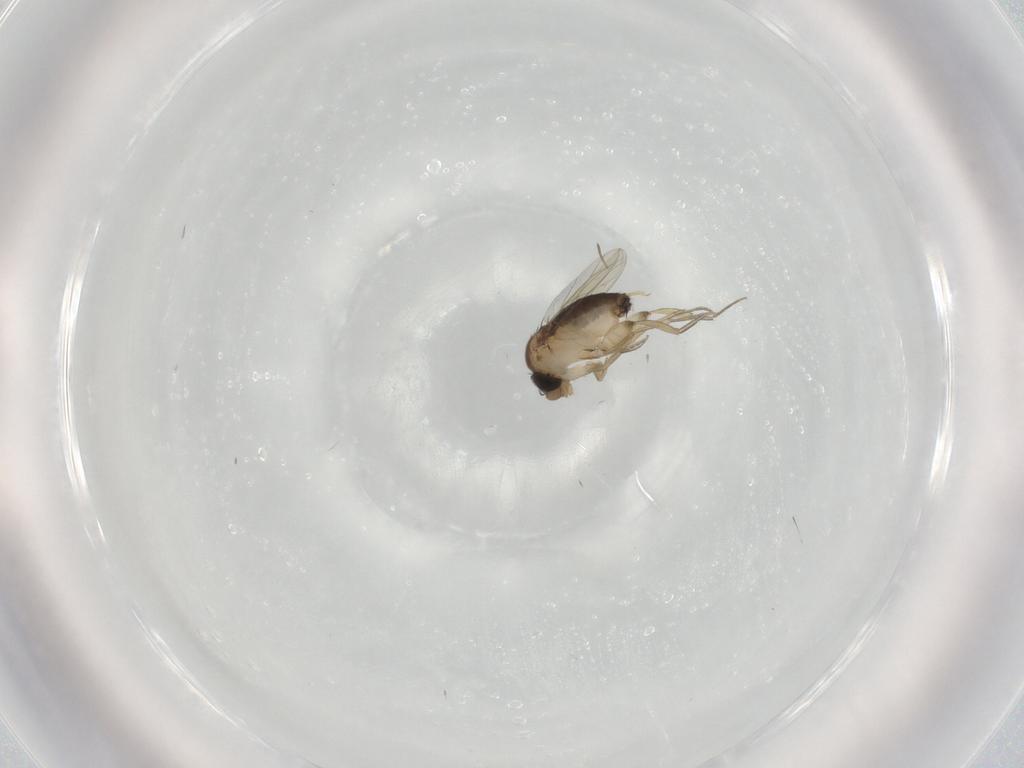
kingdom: Animalia
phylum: Arthropoda
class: Insecta
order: Diptera
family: Phoridae
